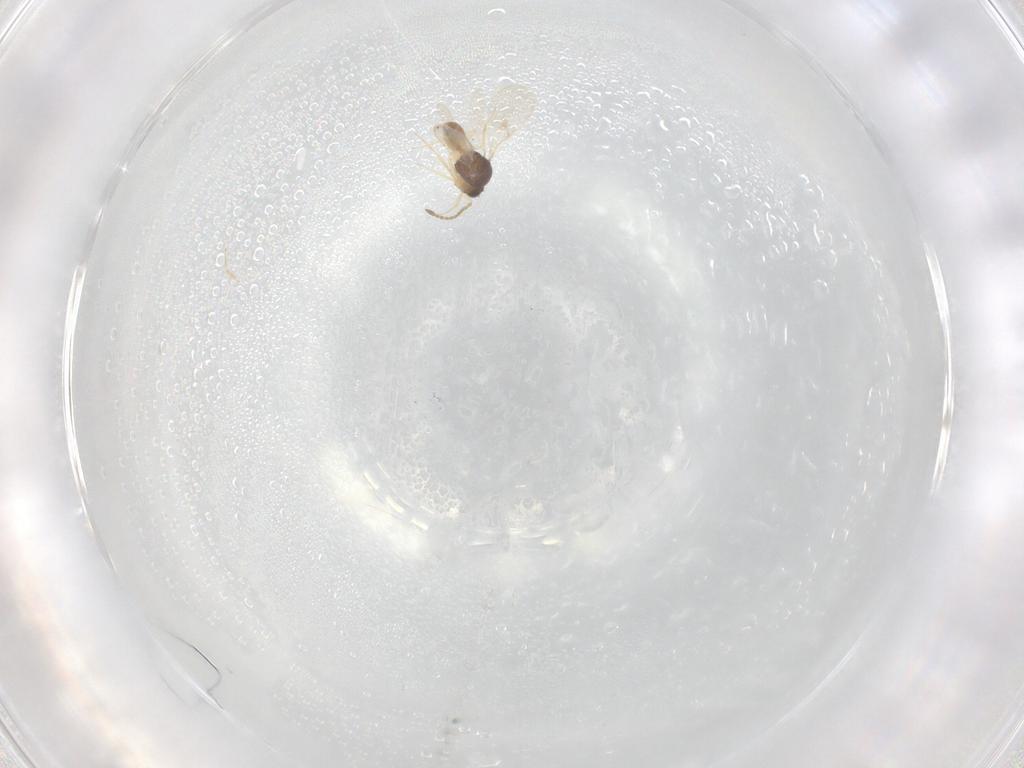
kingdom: Animalia
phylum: Arthropoda
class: Insecta
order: Hymenoptera
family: Scelionidae
